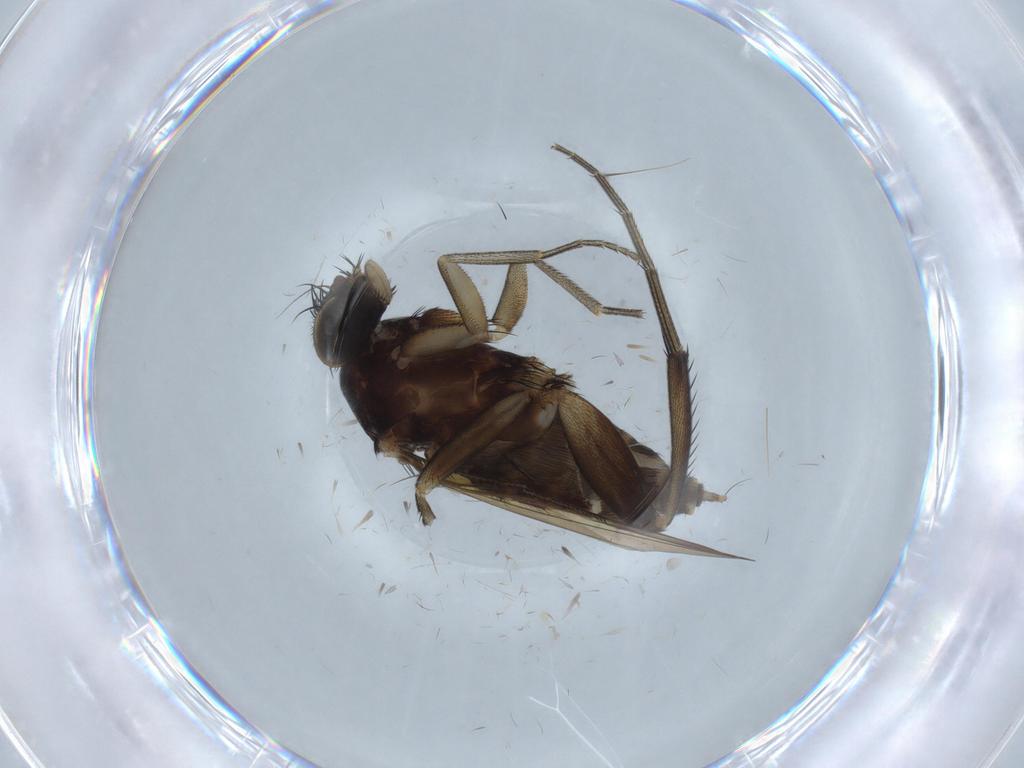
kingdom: Animalia
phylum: Arthropoda
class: Insecta
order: Diptera
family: Phoridae
